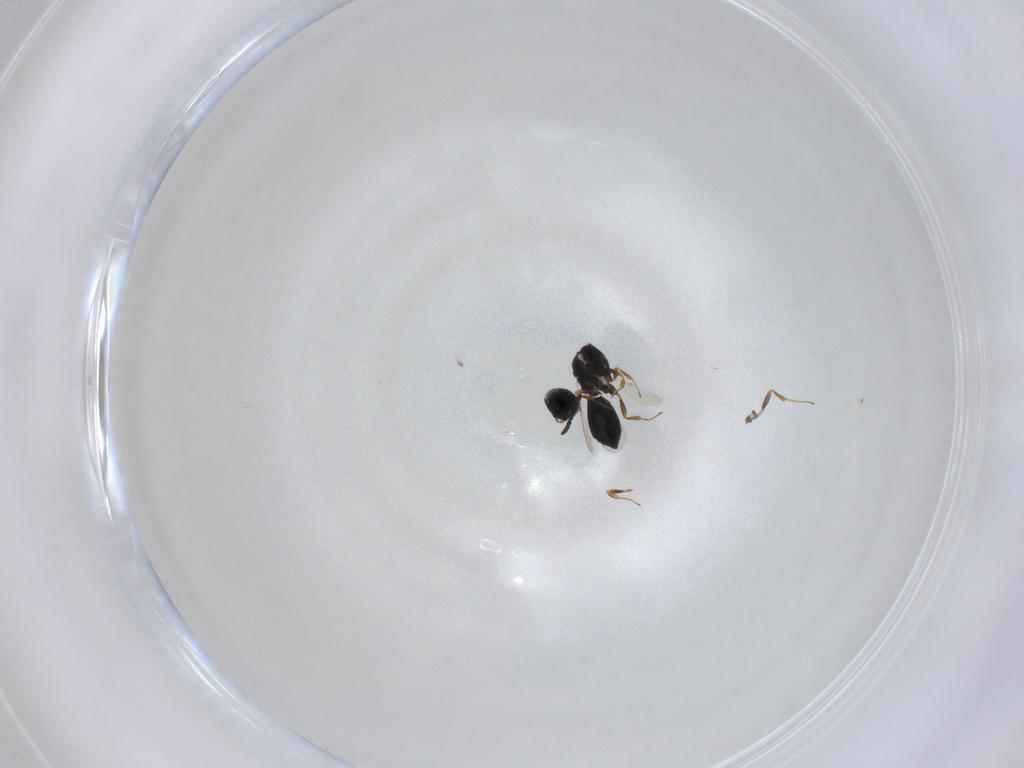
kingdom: Animalia
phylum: Arthropoda
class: Insecta
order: Hymenoptera
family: Scelionidae
